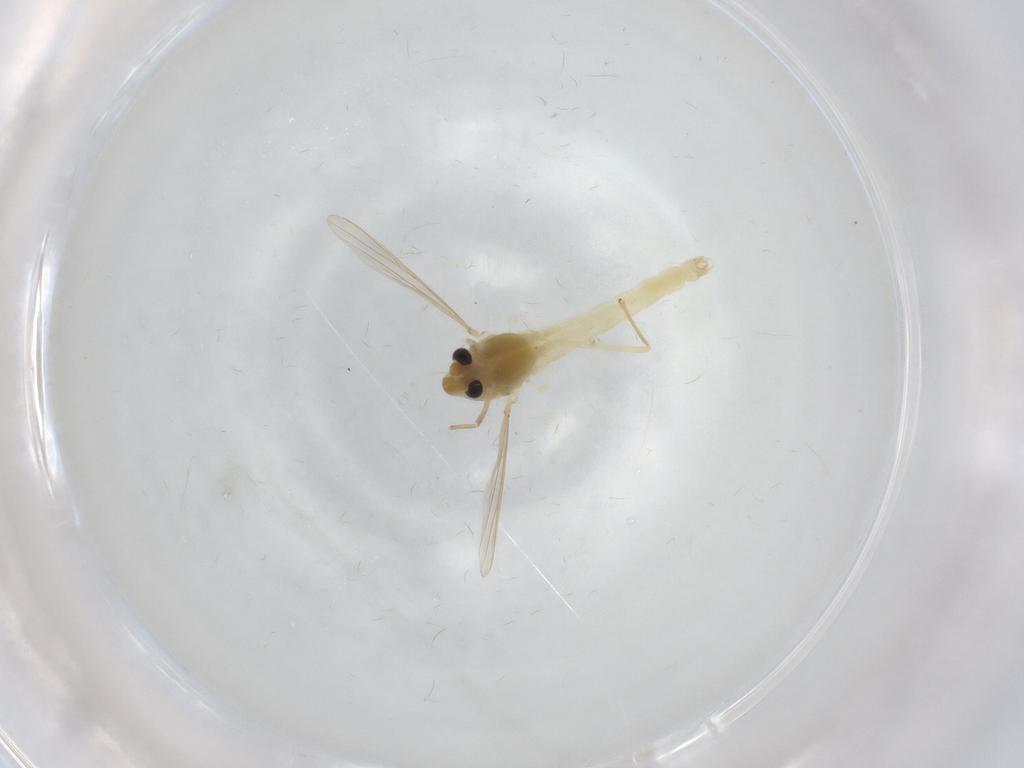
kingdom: Animalia
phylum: Arthropoda
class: Insecta
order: Diptera
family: Chironomidae
